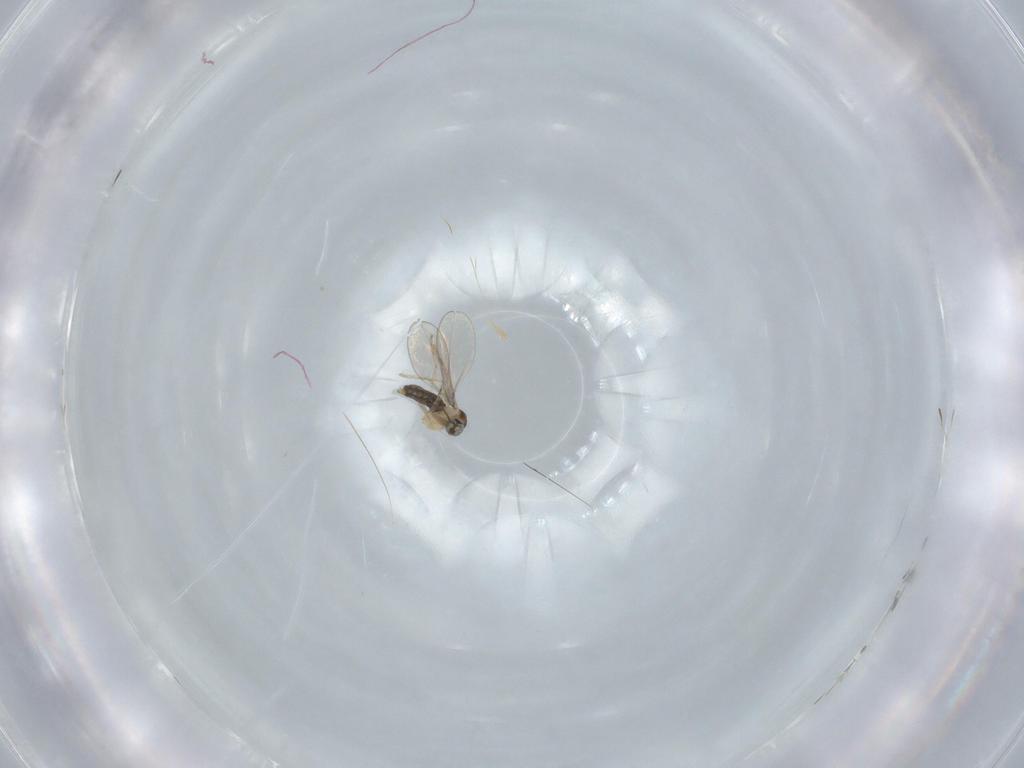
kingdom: Animalia
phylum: Arthropoda
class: Insecta
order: Diptera
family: Cecidomyiidae
